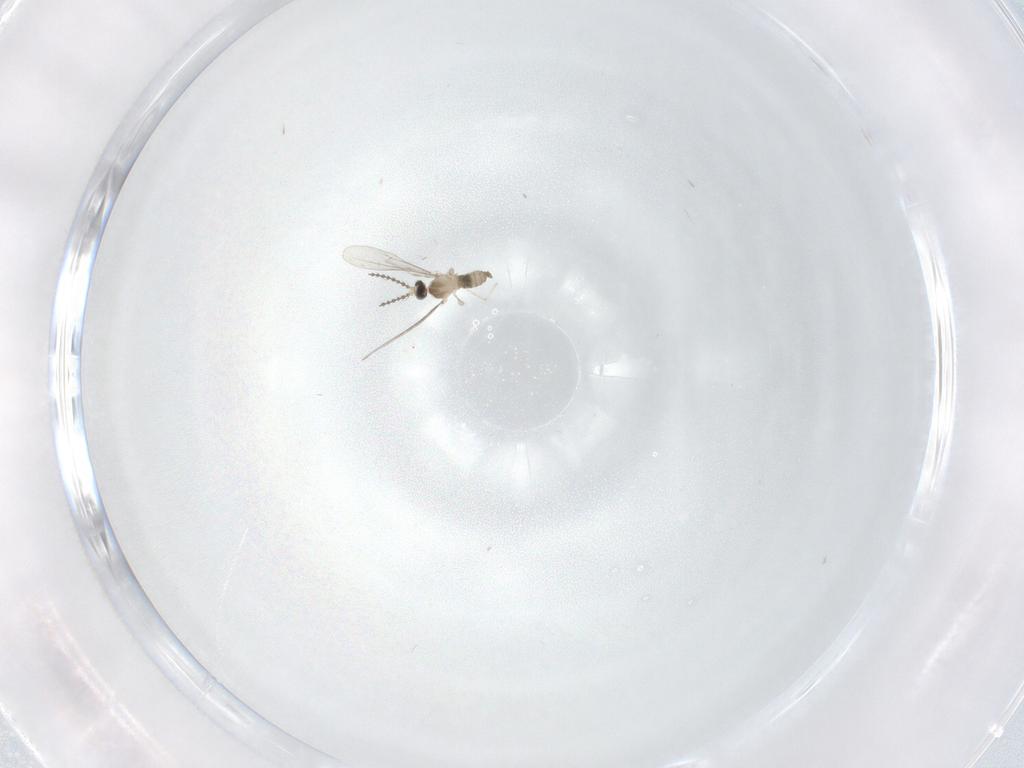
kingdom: Animalia
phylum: Arthropoda
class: Insecta
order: Diptera
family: Cecidomyiidae
